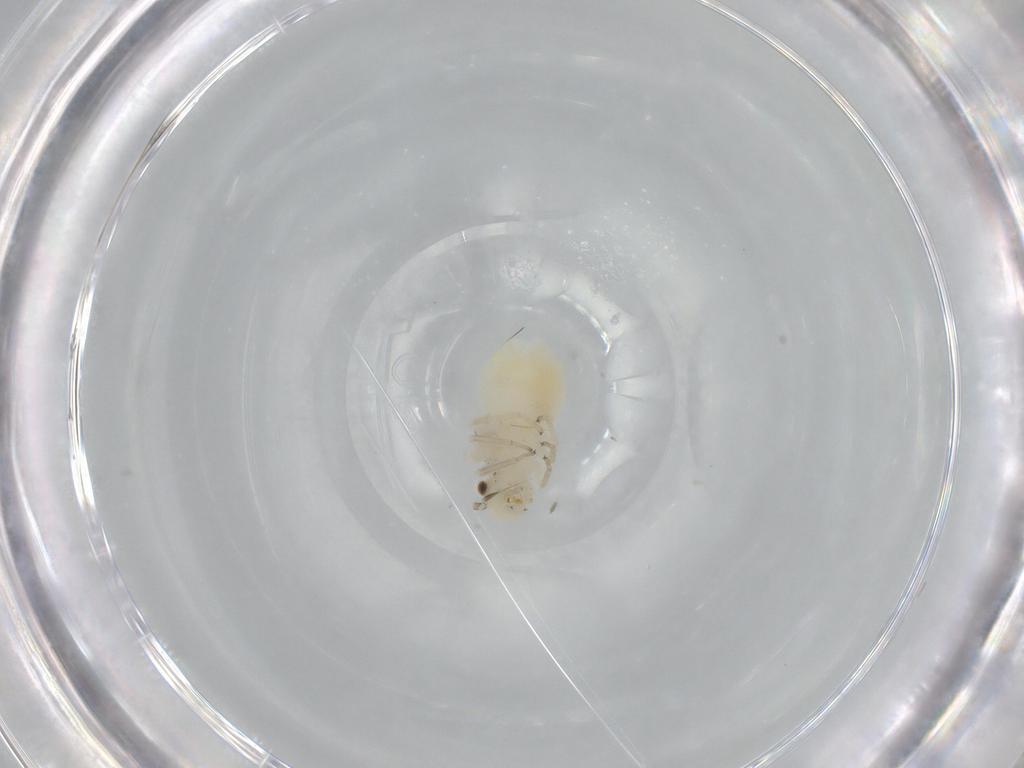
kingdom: Animalia
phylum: Arthropoda
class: Insecta
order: Psocodea
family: Caeciliusidae
